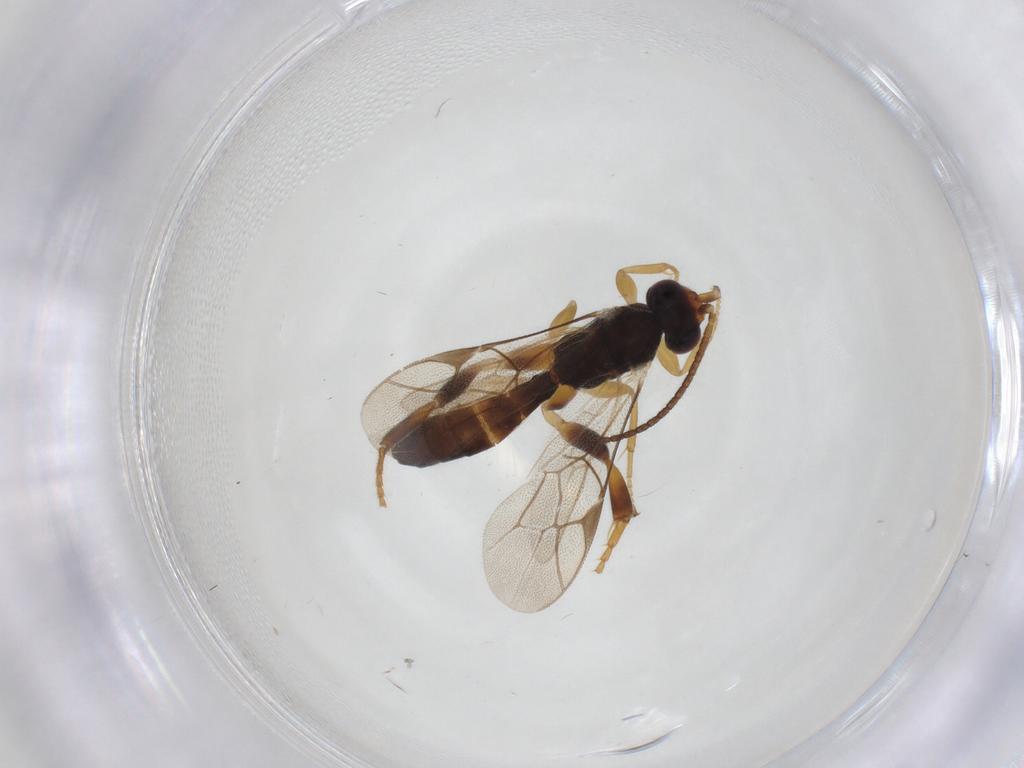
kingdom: Animalia
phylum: Arthropoda
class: Insecta
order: Hymenoptera
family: Ichneumonidae
